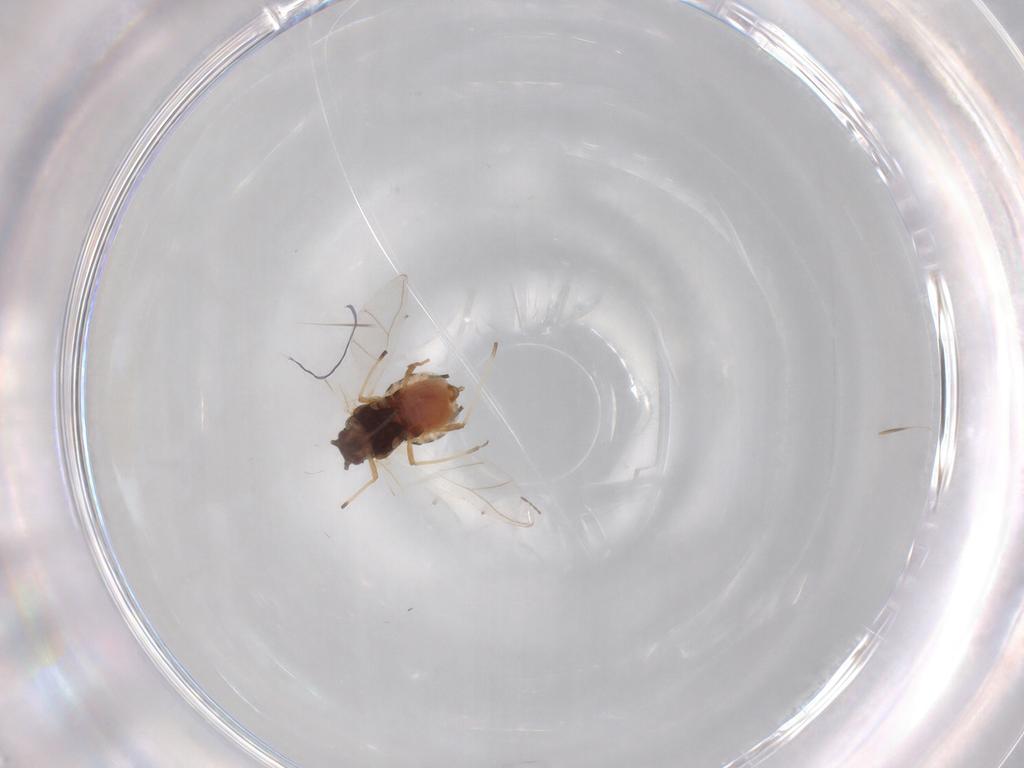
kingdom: Animalia
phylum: Arthropoda
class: Insecta
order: Hemiptera
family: Aphididae
